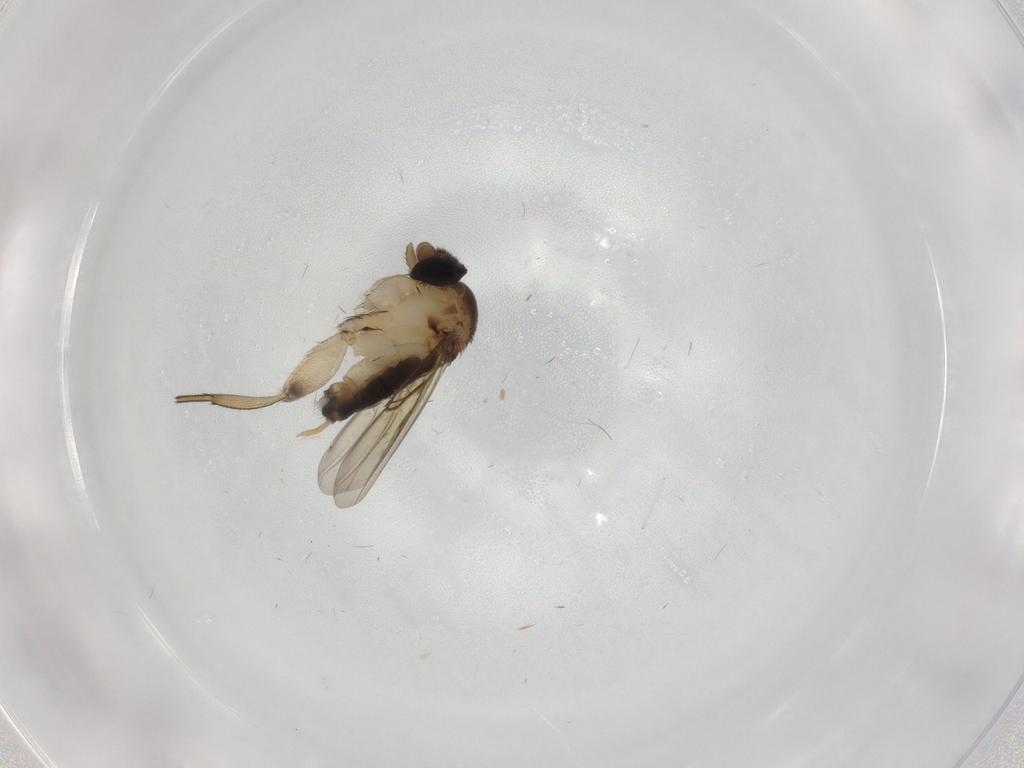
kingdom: Animalia
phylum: Arthropoda
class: Insecta
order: Diptera
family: Phoridae
